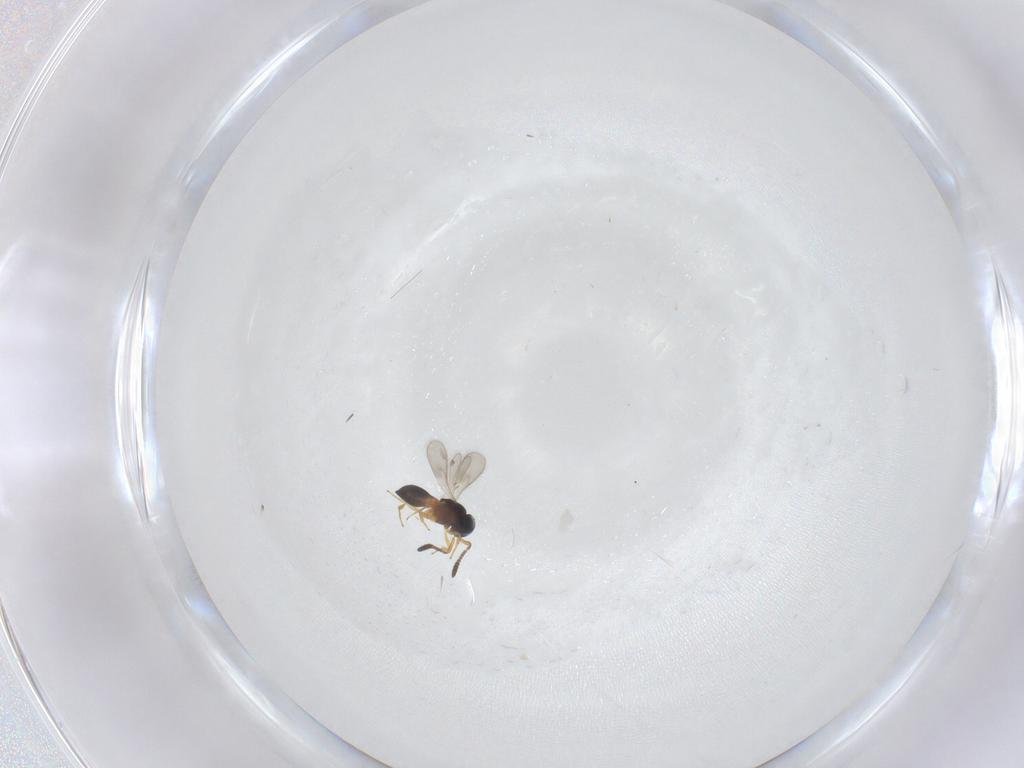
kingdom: Animalia
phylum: Arthropoda
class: Insecta
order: Hymenoptera
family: Scelionidae
